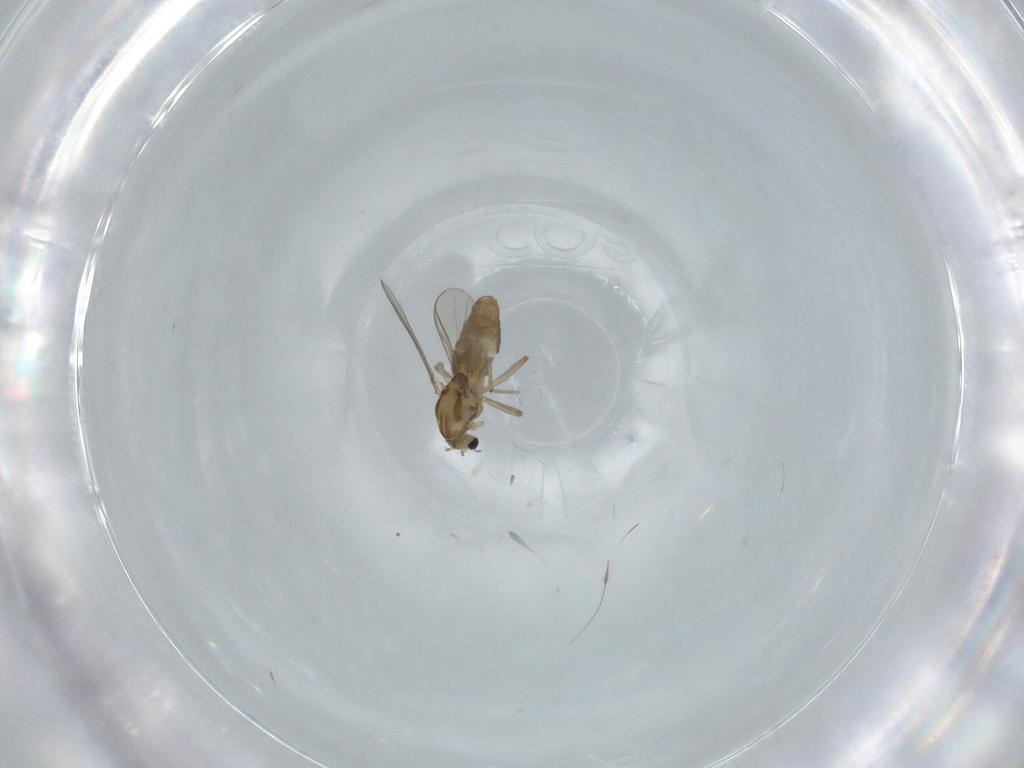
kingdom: Animalia
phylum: Arthropoda
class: Insecta
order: Diptera
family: Chironomidae
